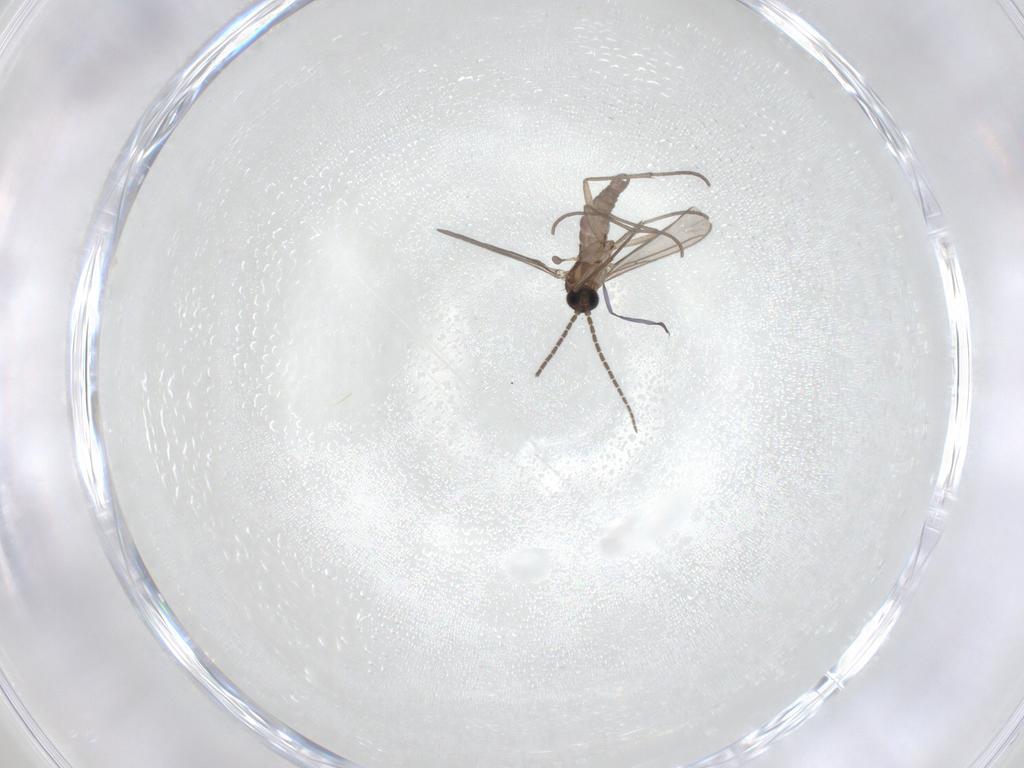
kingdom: Animalia
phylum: Arthropoda
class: Insecta
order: Diptera
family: Sciaridae
